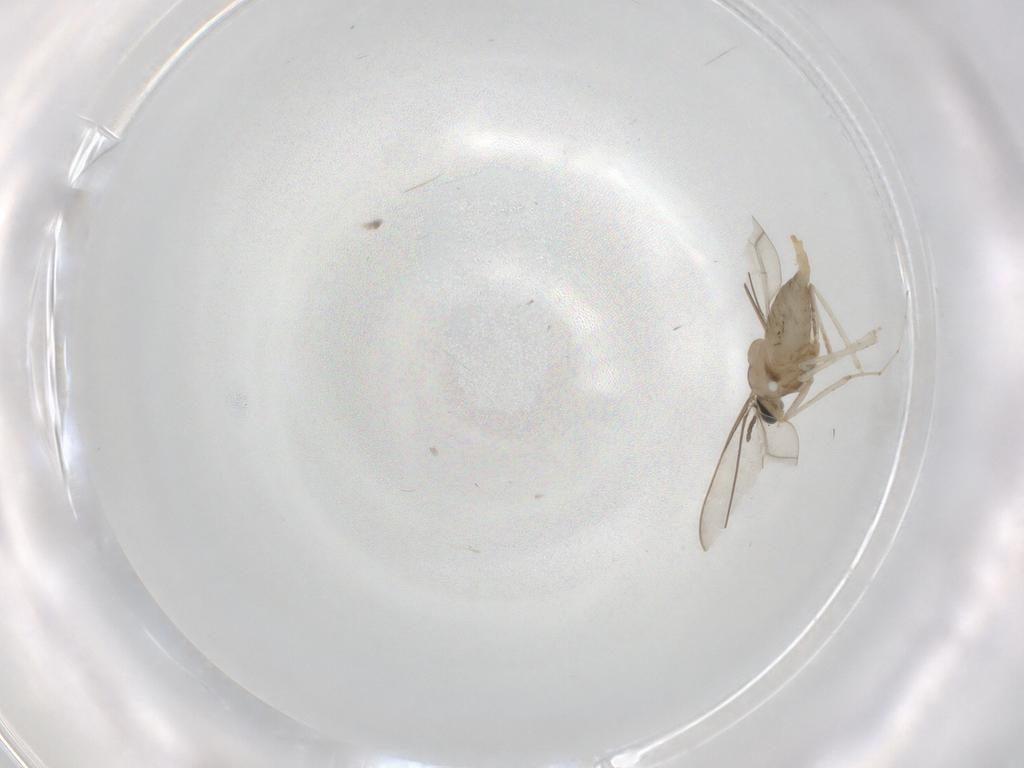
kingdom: Animalia
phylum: Arthropoda
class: Insecta
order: Diptera
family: Cecidomyiidae
